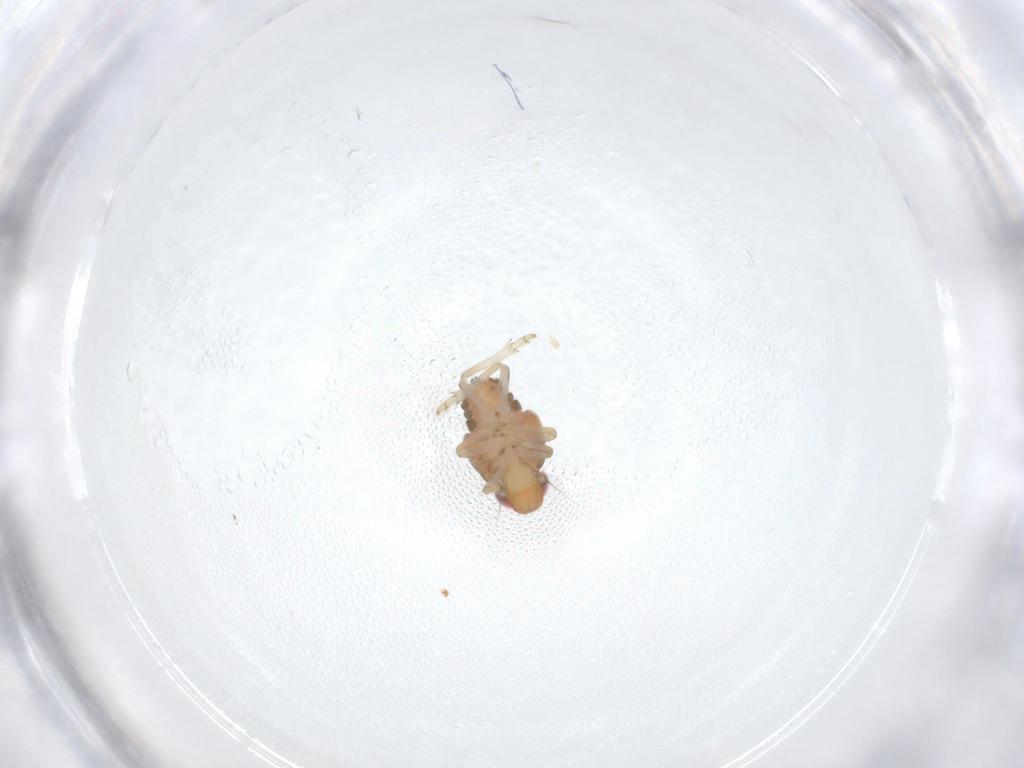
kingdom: Animalia
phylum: Arthropoda
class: Insecta
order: Hemiptera
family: Issidae
